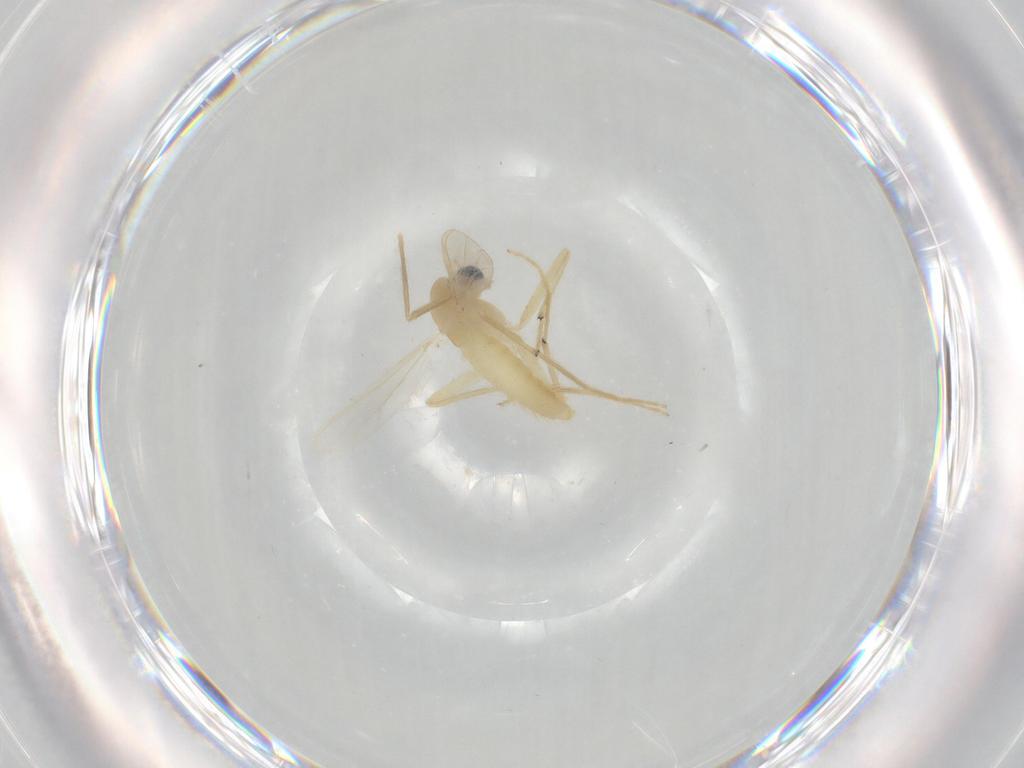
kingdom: Animalia
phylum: Arthropoda
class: Insecta
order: Diptera
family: Chironomidae
